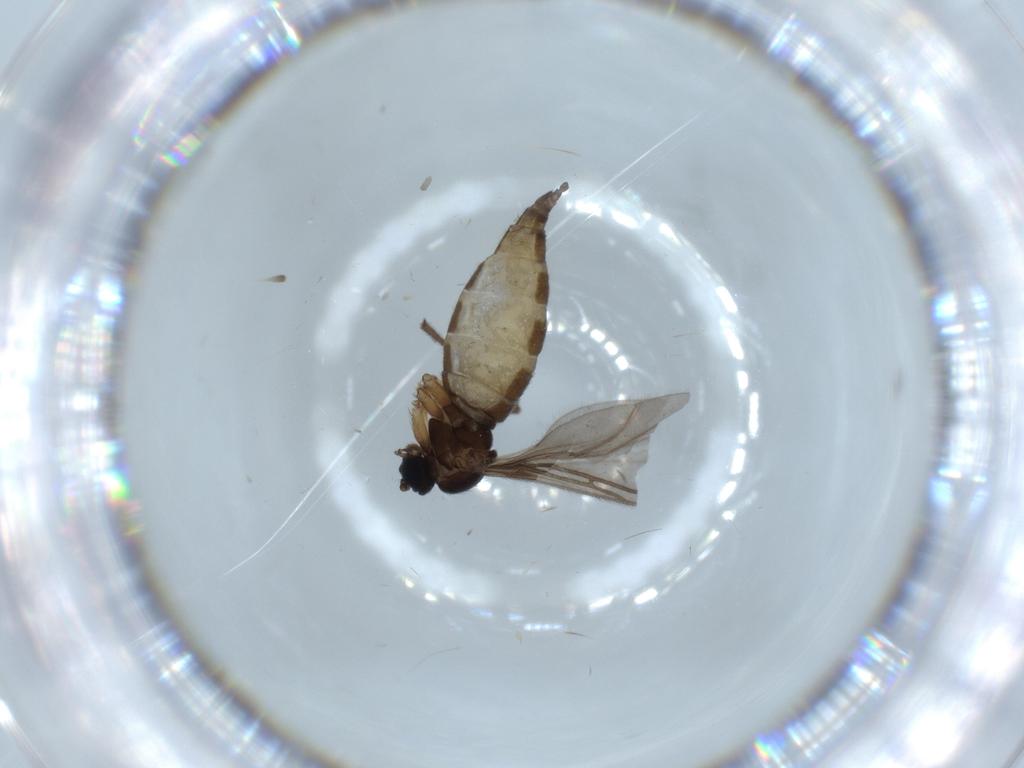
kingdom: Animalia
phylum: Arthropoda
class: Insecta
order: Diptera
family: Sciaridae
